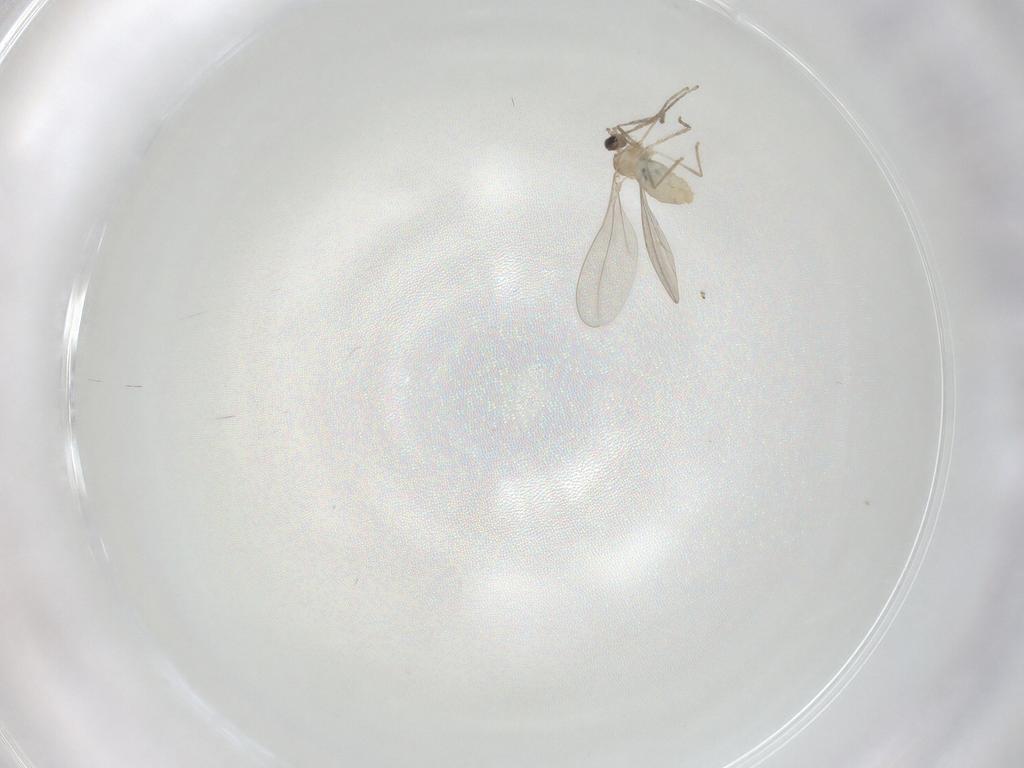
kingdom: Animalia
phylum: Arthropoda
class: Insecta
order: Diptera
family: Cecidomyiidae
